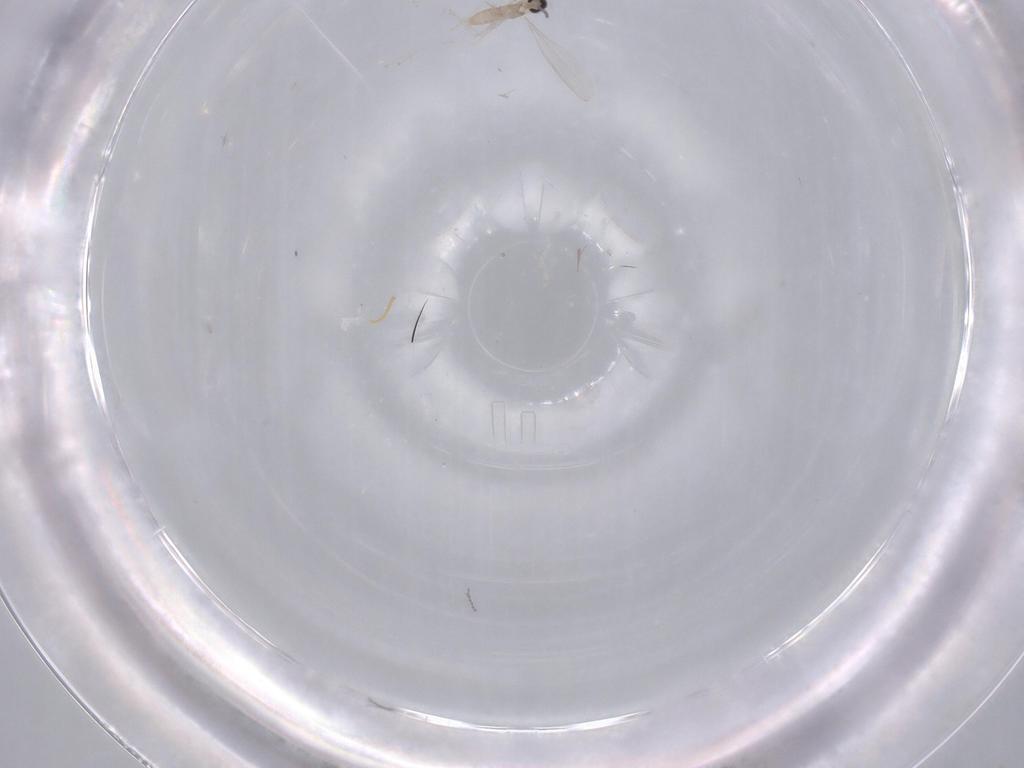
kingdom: Animalia
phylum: Arthropoda
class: Insecta
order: Diptera
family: Phoridae
